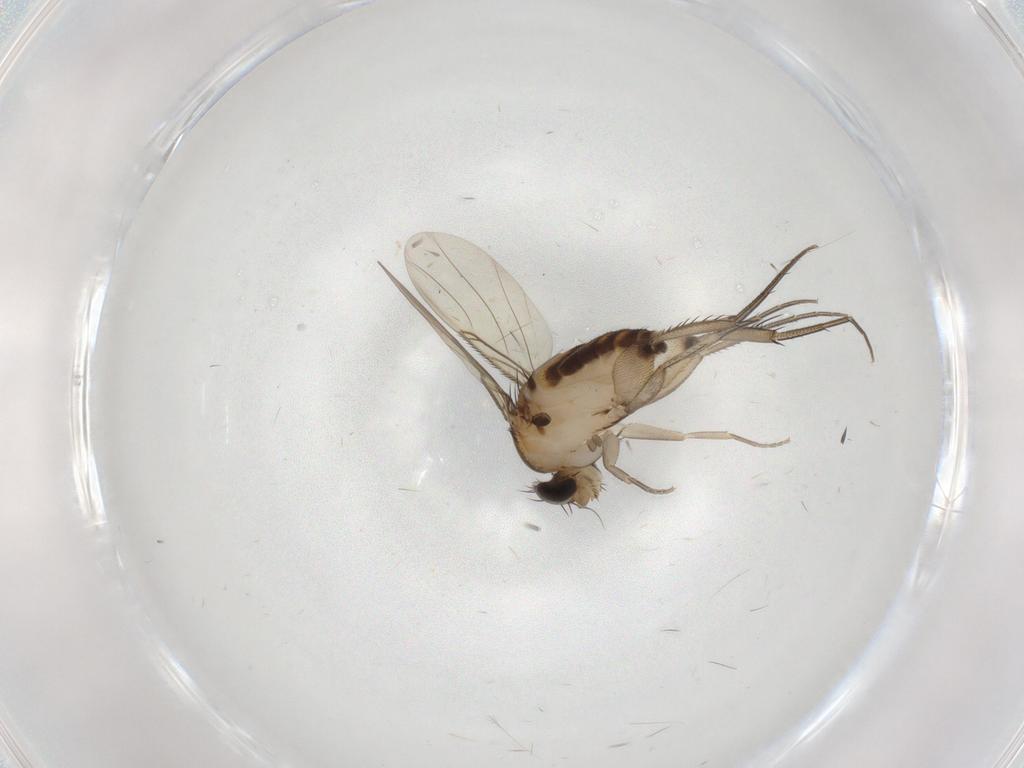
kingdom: Animalia
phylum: Arthropoda
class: Insecta
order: Diptera
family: Phoridae
